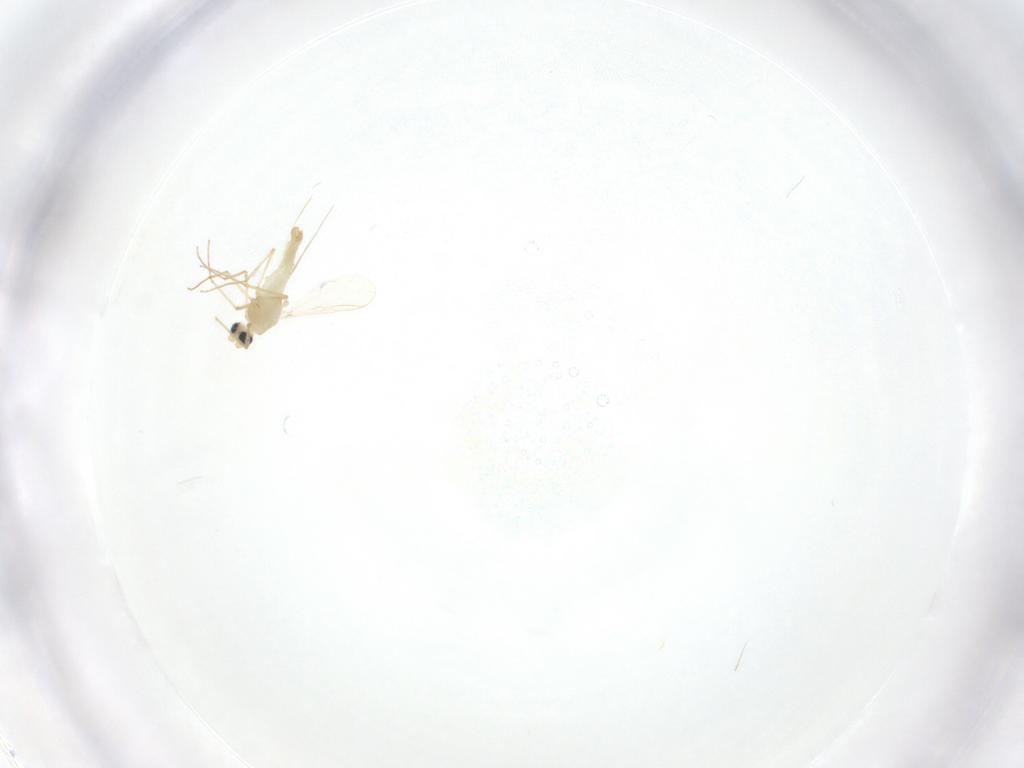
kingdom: Animalia
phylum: Arthropoda
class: Insecta
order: Diptera
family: Chironomidae
